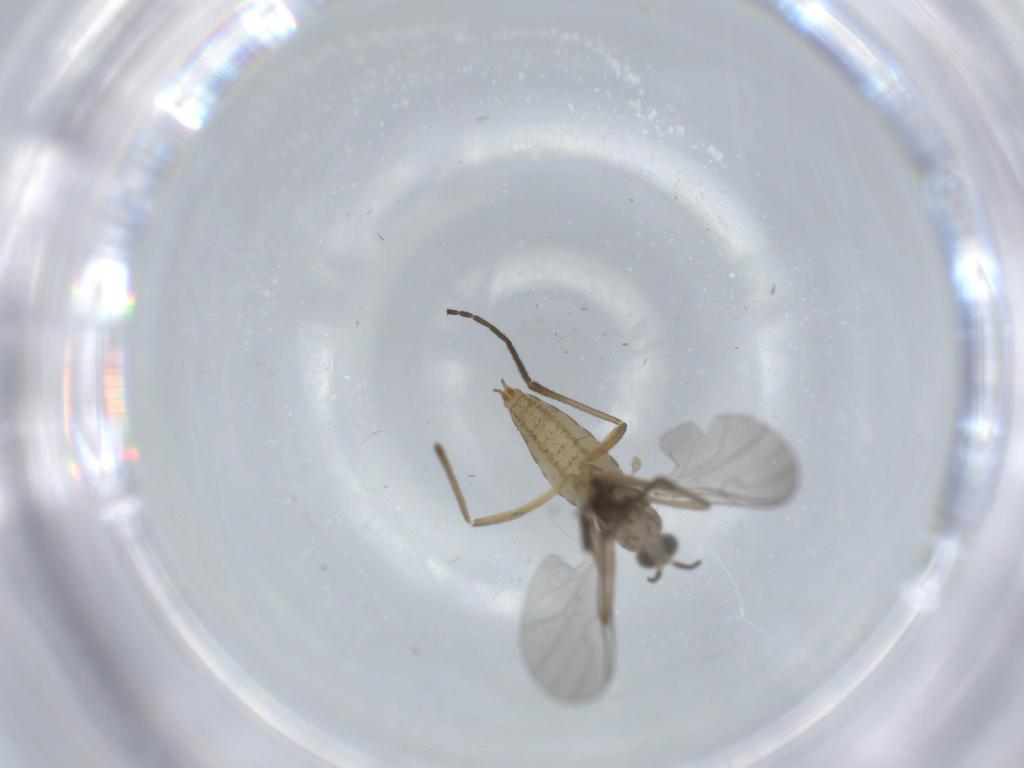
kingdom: Animalia
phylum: Arthropoda
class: Insecta
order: Diptera
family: Cecidomyiidae
